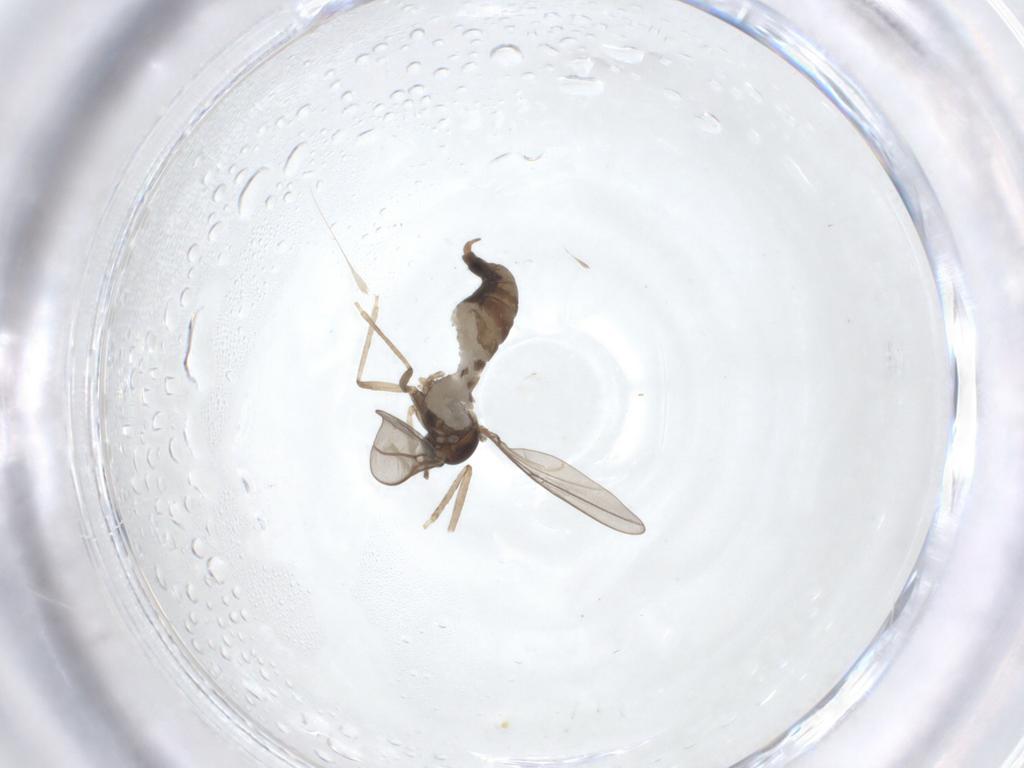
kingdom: Animalia
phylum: Arthropoda
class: Insecta
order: Diptera
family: Cecidomyiidae
